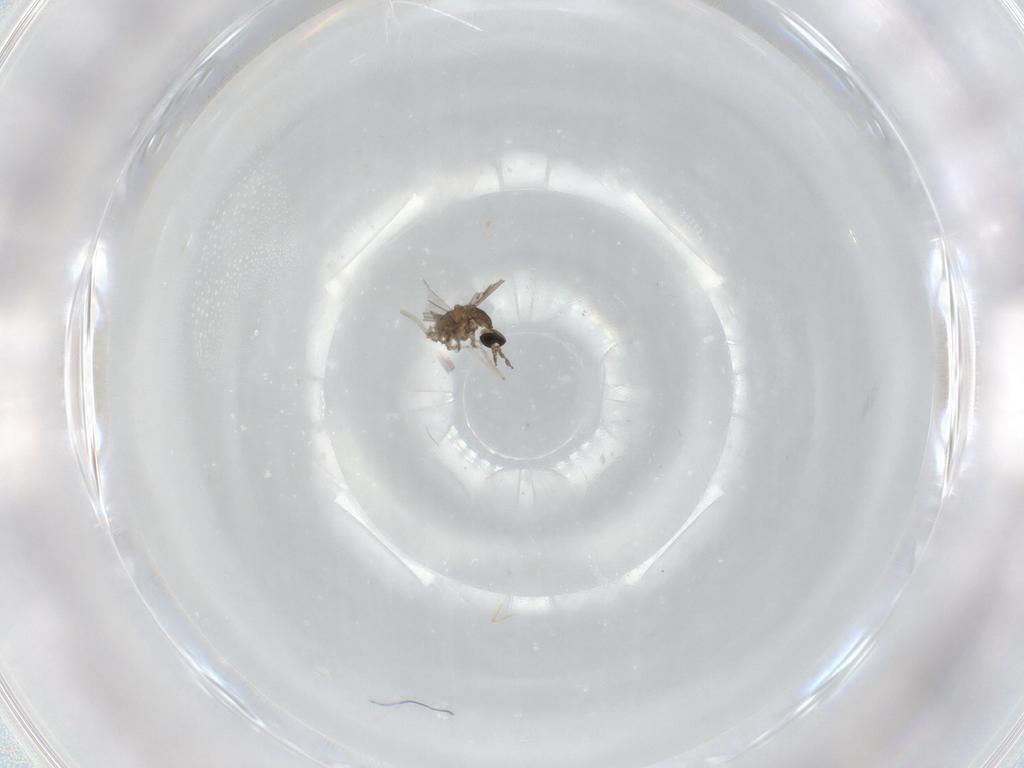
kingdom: Animalia
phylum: Arthropoda
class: Insecta
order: Diptera
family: Cecidomyiidae
